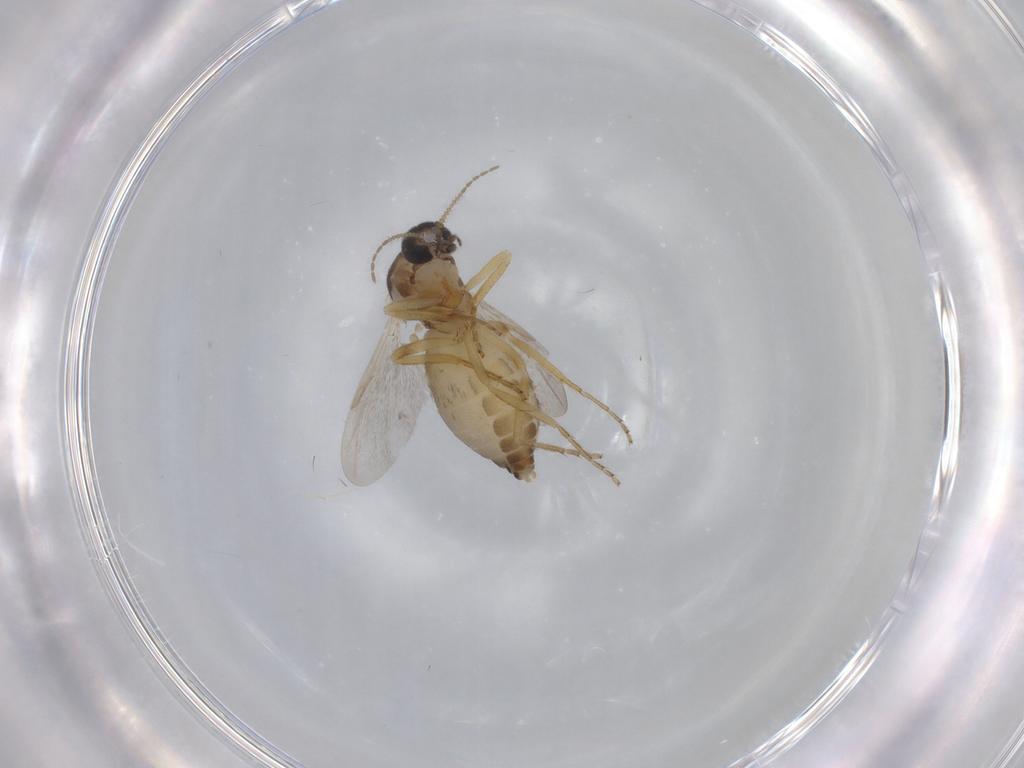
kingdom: Animalia
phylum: Arthropoda
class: Insecta
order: Diptera
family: Ceratopogonidae
